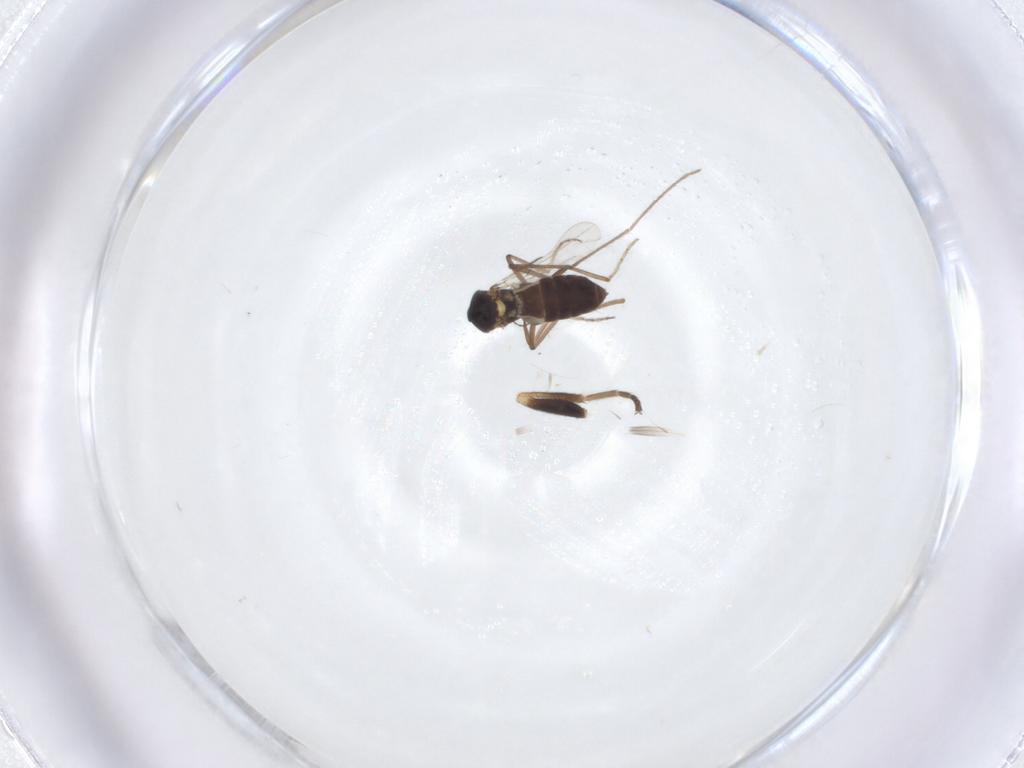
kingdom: Animalia
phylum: Arthropoda
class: Insecta
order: Diptera
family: Ceratopogonidae
